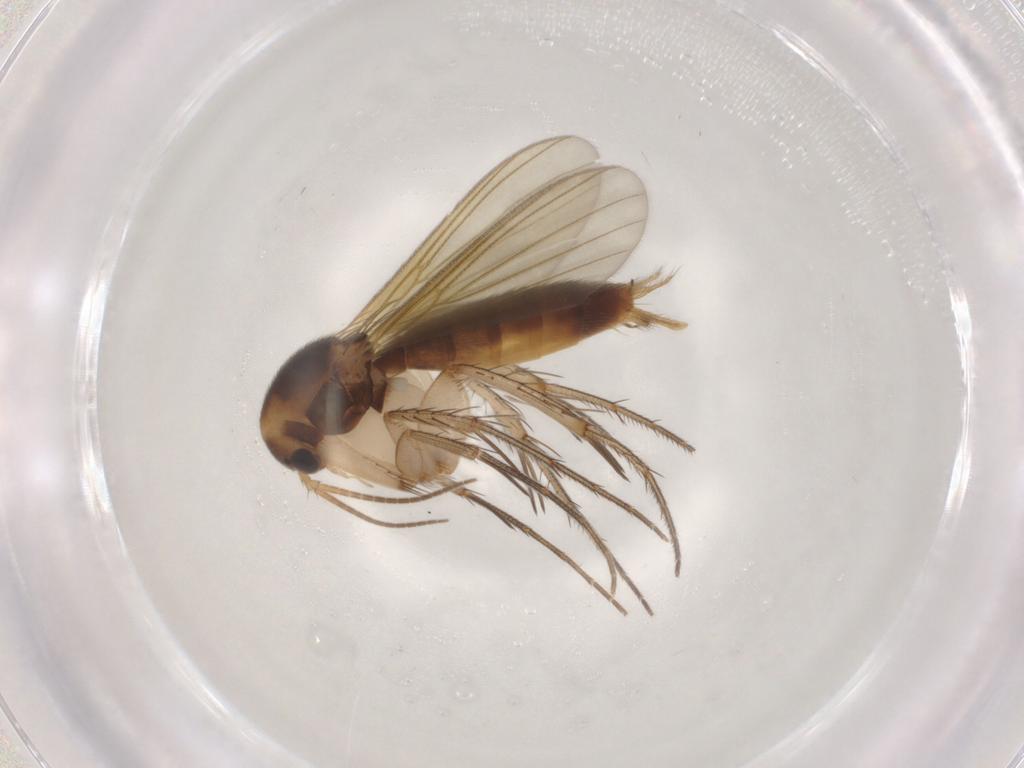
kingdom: Animalia
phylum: Arthropoda
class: Insecta
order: Diptera
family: Mycetophilidae
